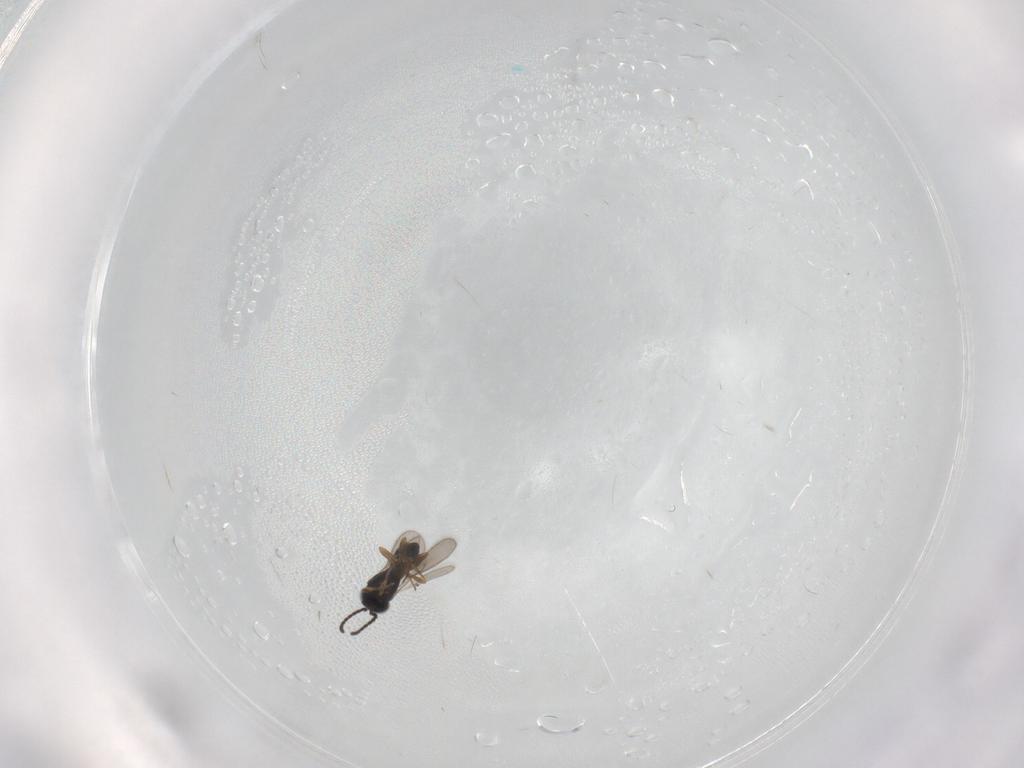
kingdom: Animalia
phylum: Arthropoda
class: Insecta
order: Hymenoptera
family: Scelionidae
